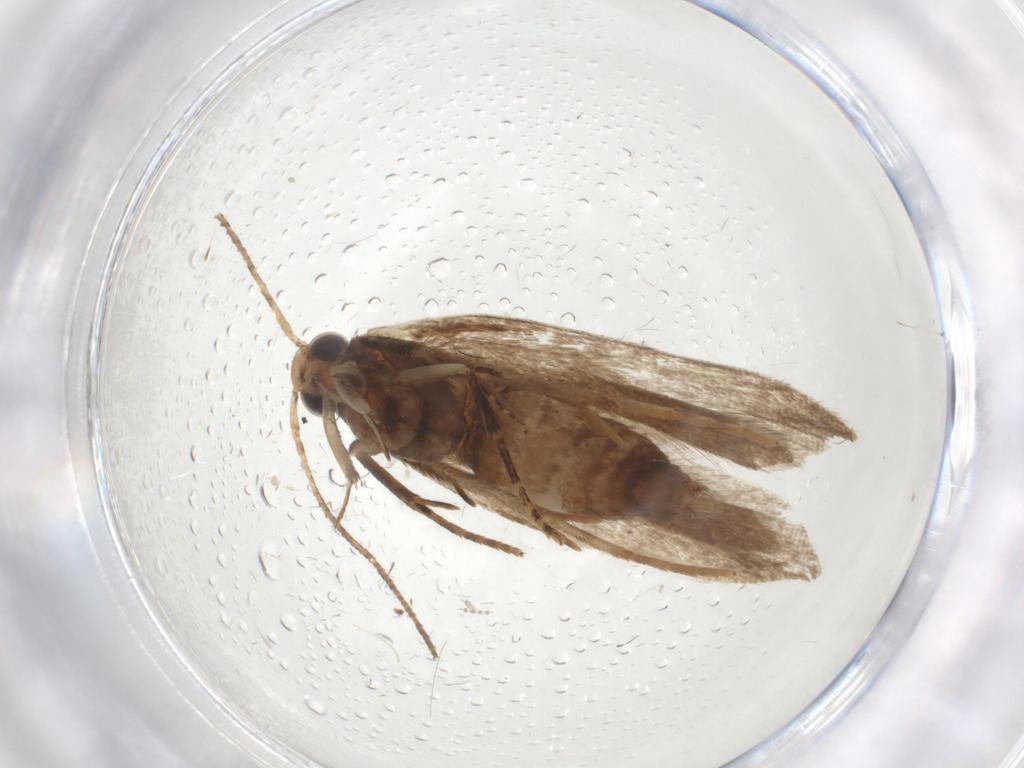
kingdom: Animalia
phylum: Arthropoda
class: Insecta
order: Lepidoptera
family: Gelechiidae
